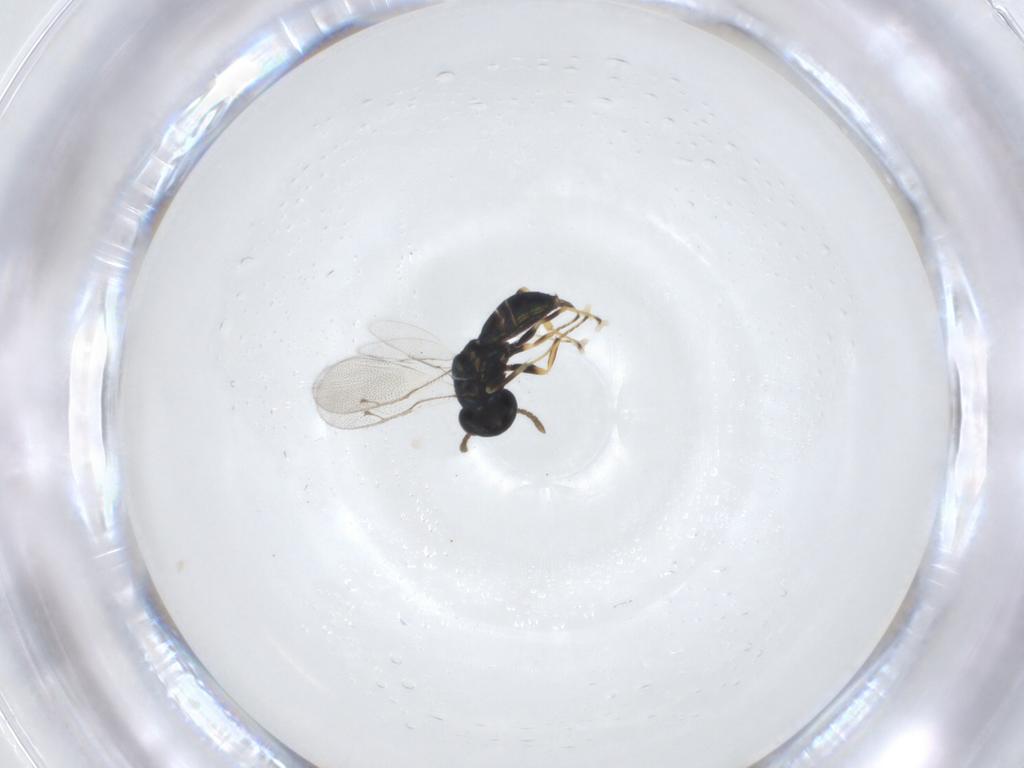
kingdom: Animalia
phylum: Arthropoda
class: Insecta
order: Hymenoptera
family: Pteromalidae
